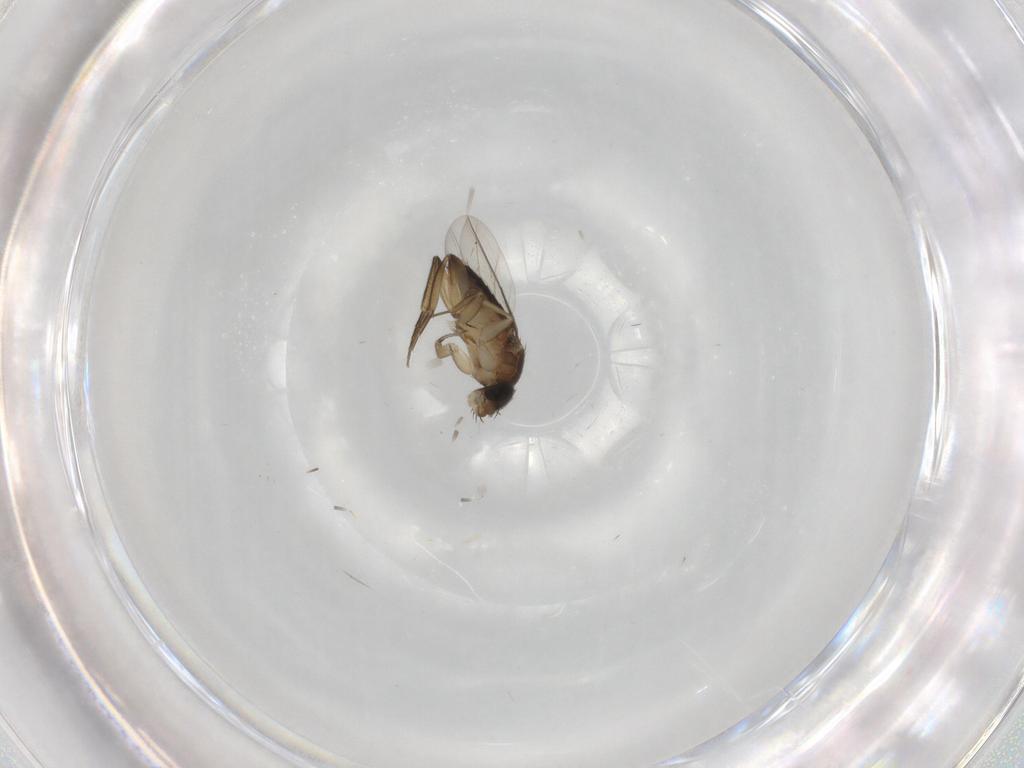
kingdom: Animalia
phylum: Arthropoda
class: Insecta
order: Diptera
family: Phoridae
